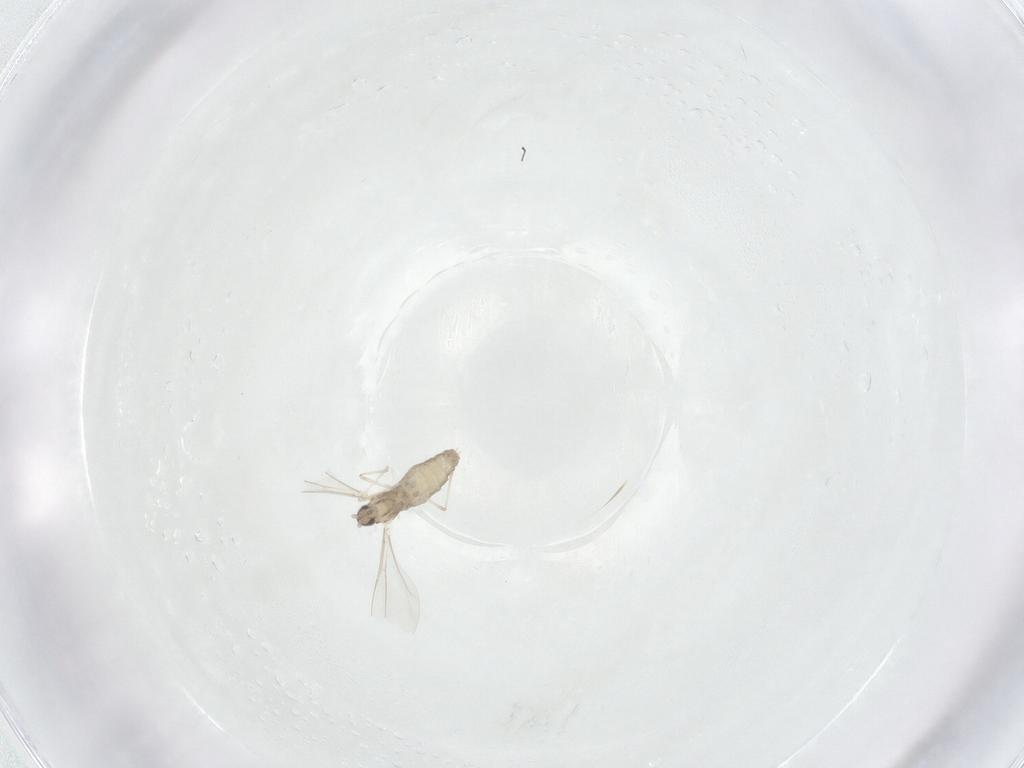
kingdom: Animalia
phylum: Arthropoda
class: Insecta
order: Diptera
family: Cecidomyiidae
